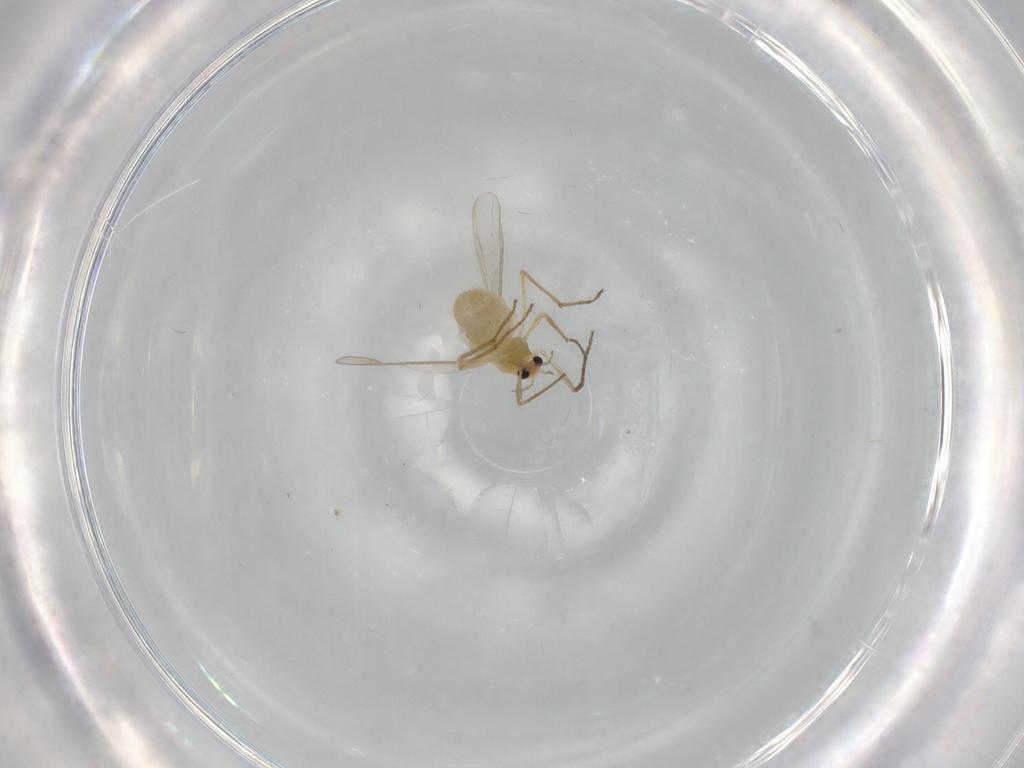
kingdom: Animalia
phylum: Arthropoda
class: Insecta
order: Diptera
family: Chironomidae
